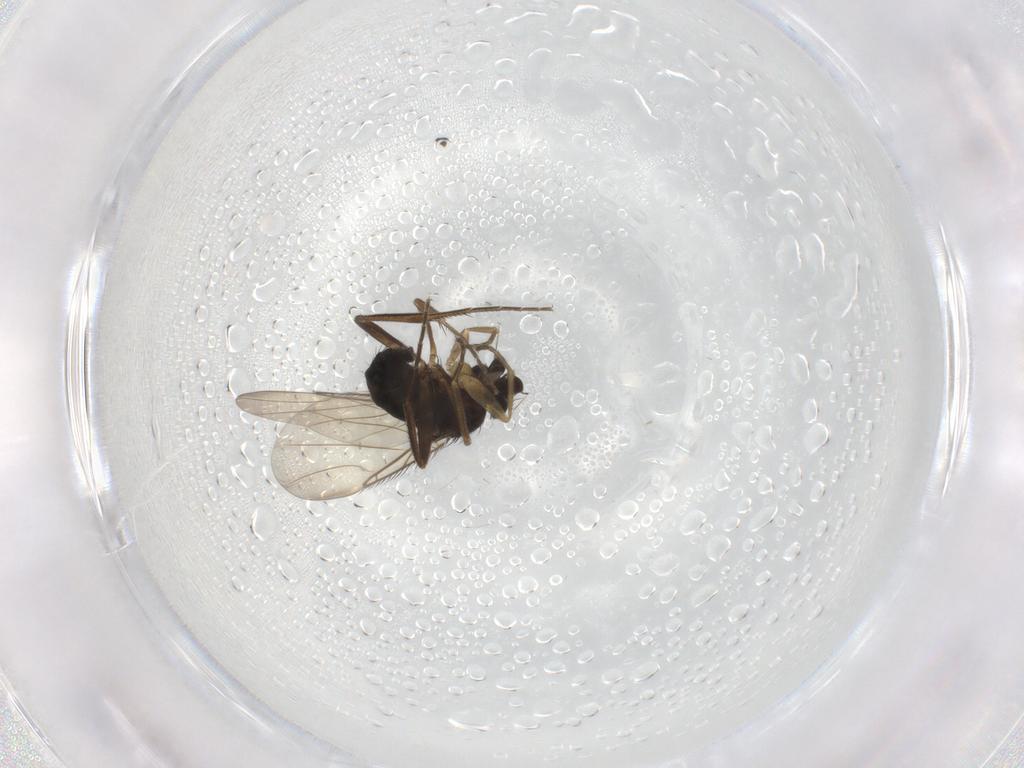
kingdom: Animalia
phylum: Arthropoda
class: Insecta
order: Diptera
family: Phoridae
